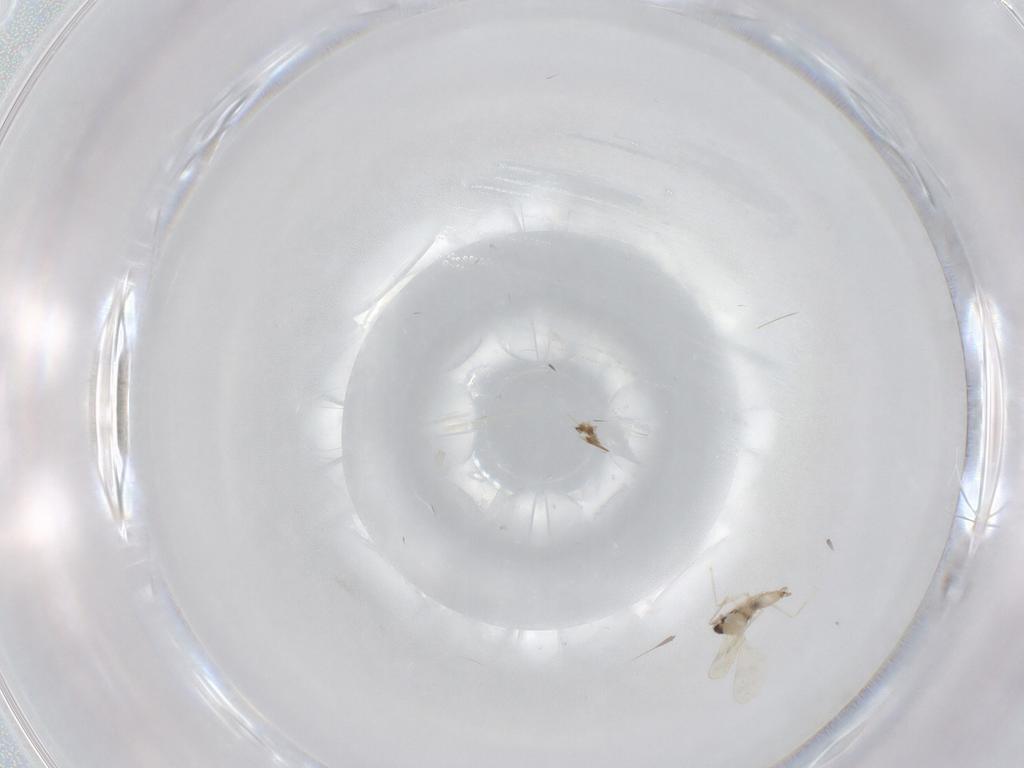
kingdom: Animalia
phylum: Arthropoda
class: Insecta
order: Diptera
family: Cecidomyiidae
